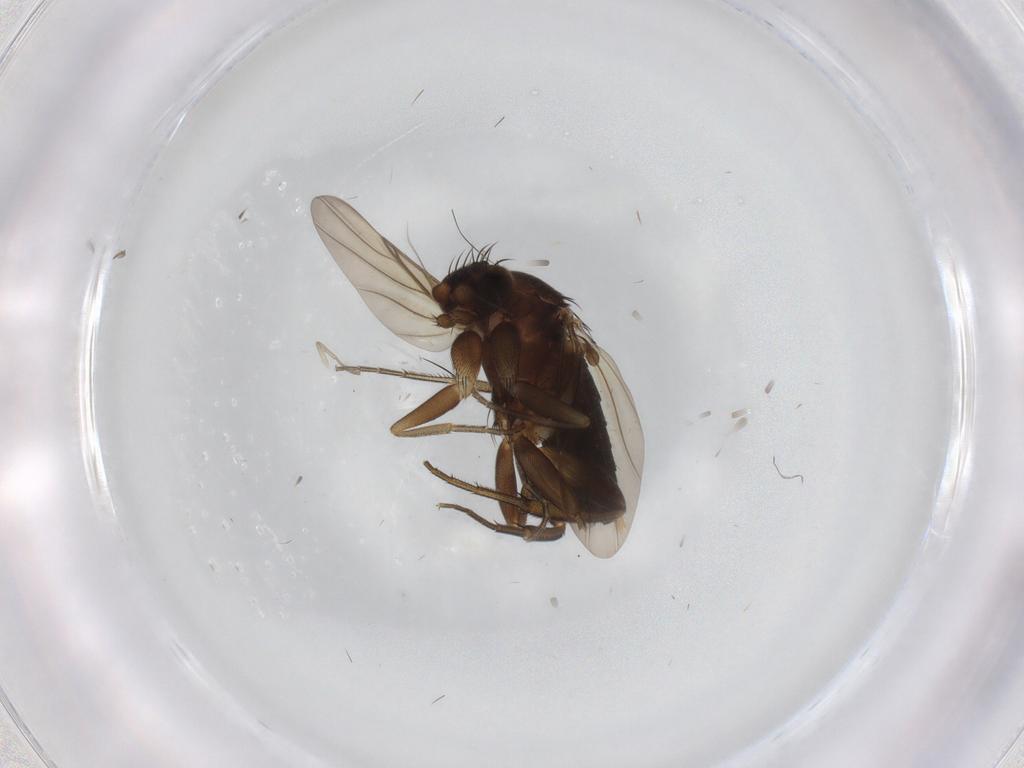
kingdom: Animalia
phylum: Arthropoda
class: Insecta
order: Diptera
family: Phoridae
